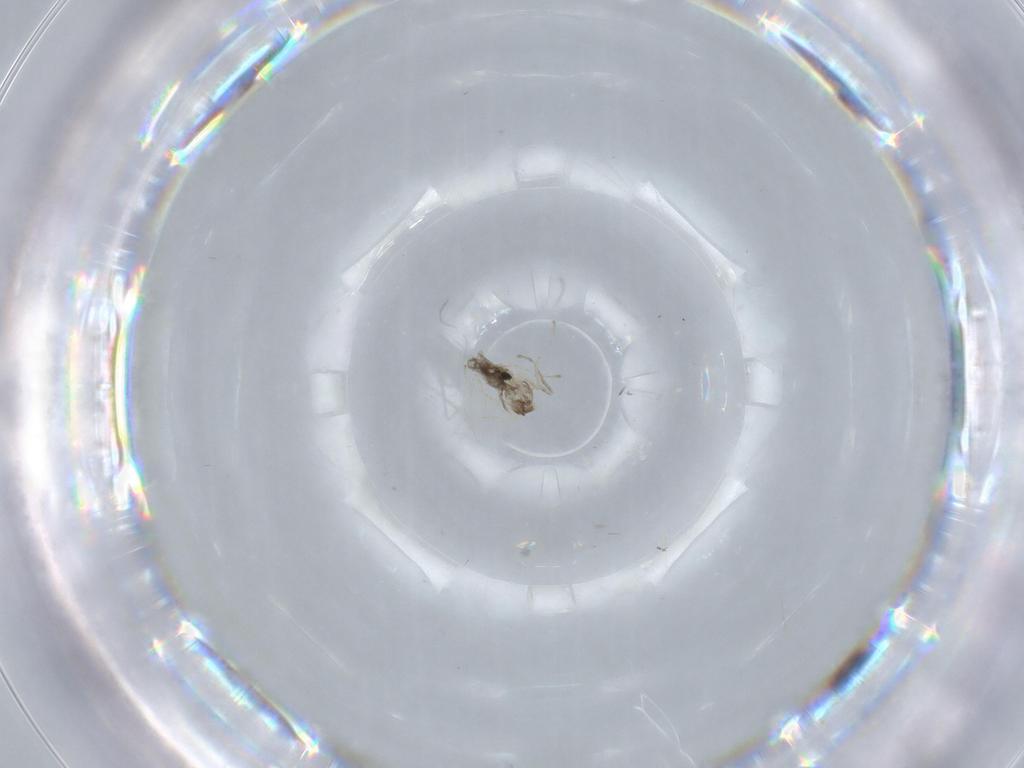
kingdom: Animalia
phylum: Arthropoda
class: Insecta
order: Diptera
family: Cecidomyiidae
